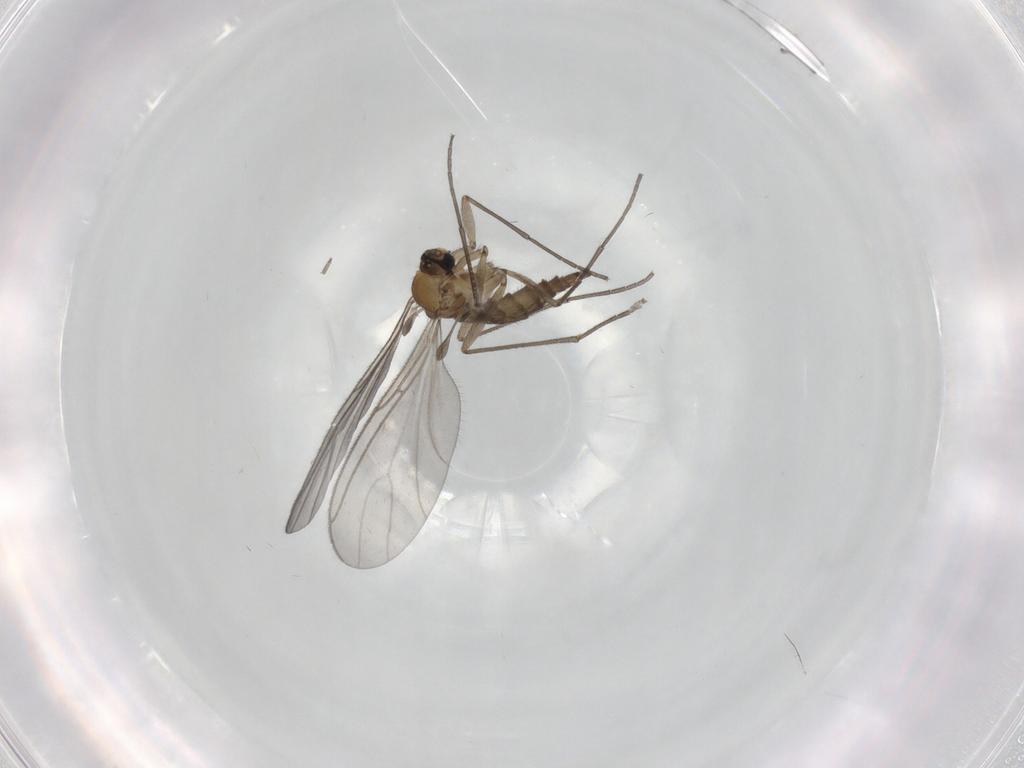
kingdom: Animalia
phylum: Arthropoda
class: Insecta
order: Diptera
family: Sciaridae
